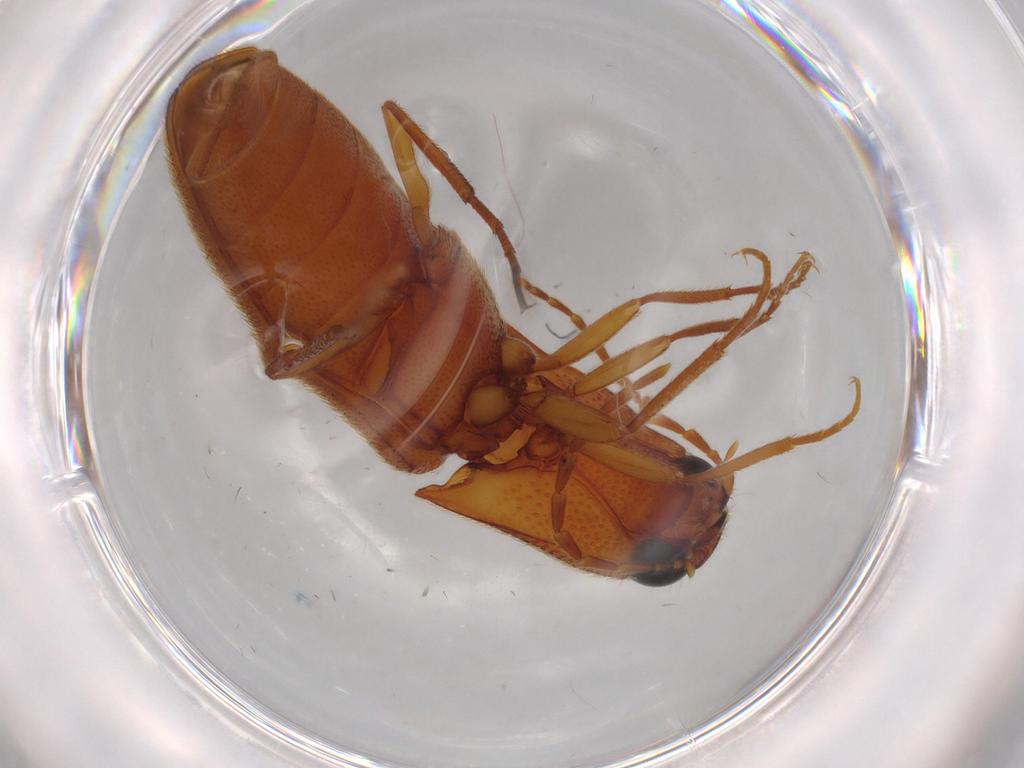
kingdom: Animalia
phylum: Arthropoda
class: Insecta
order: Coleoptera
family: Elateridae
